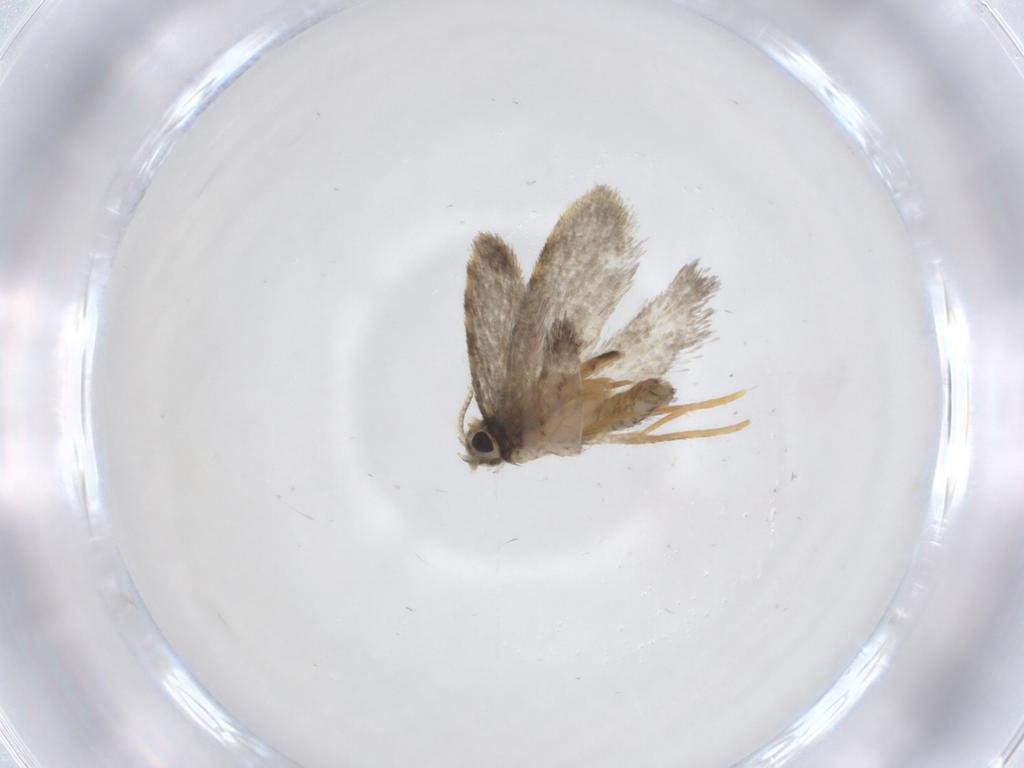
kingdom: Animalia
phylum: Arthropoda
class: Insecta
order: Lepidoptera
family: Psychidae
